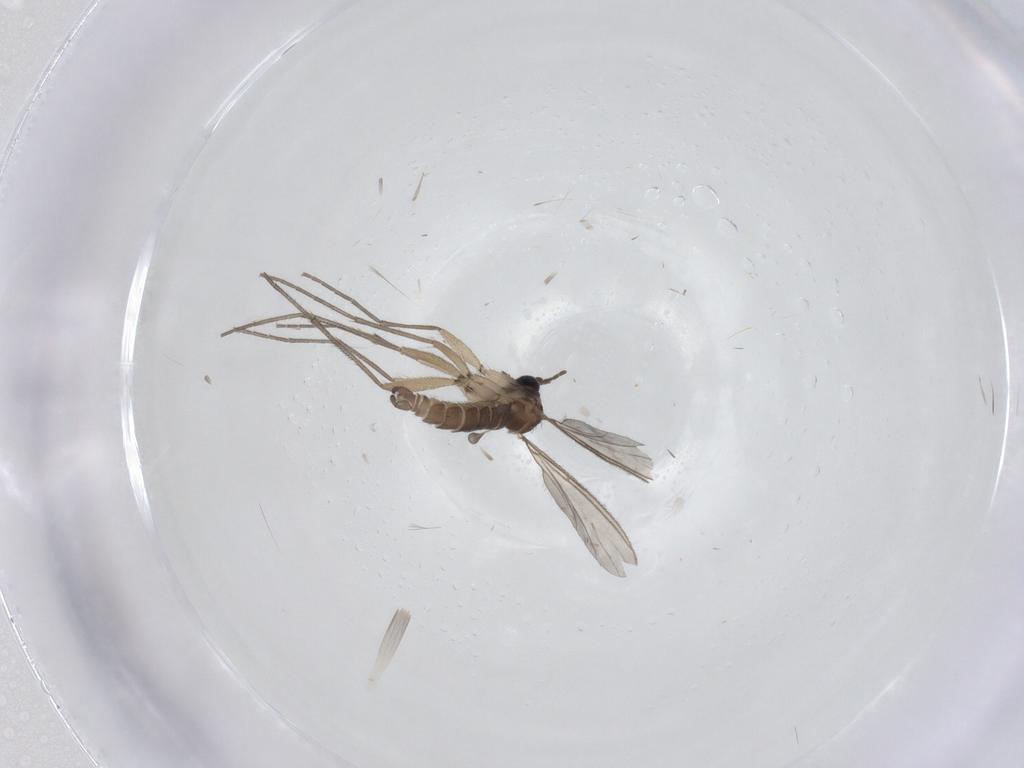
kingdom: Animalia
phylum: Arthropoda
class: Insecta
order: Diptera
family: Sciaridae
